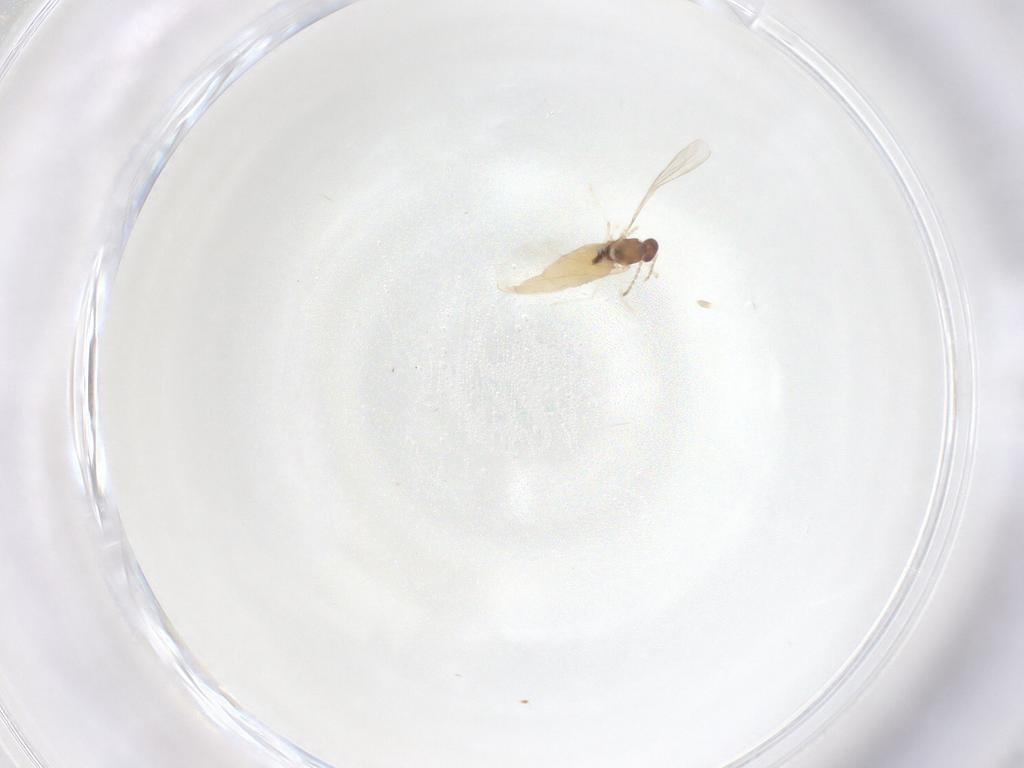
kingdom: Animalia
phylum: Arthropoda
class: Insecta
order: Diptera
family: Cecidomyiidae
